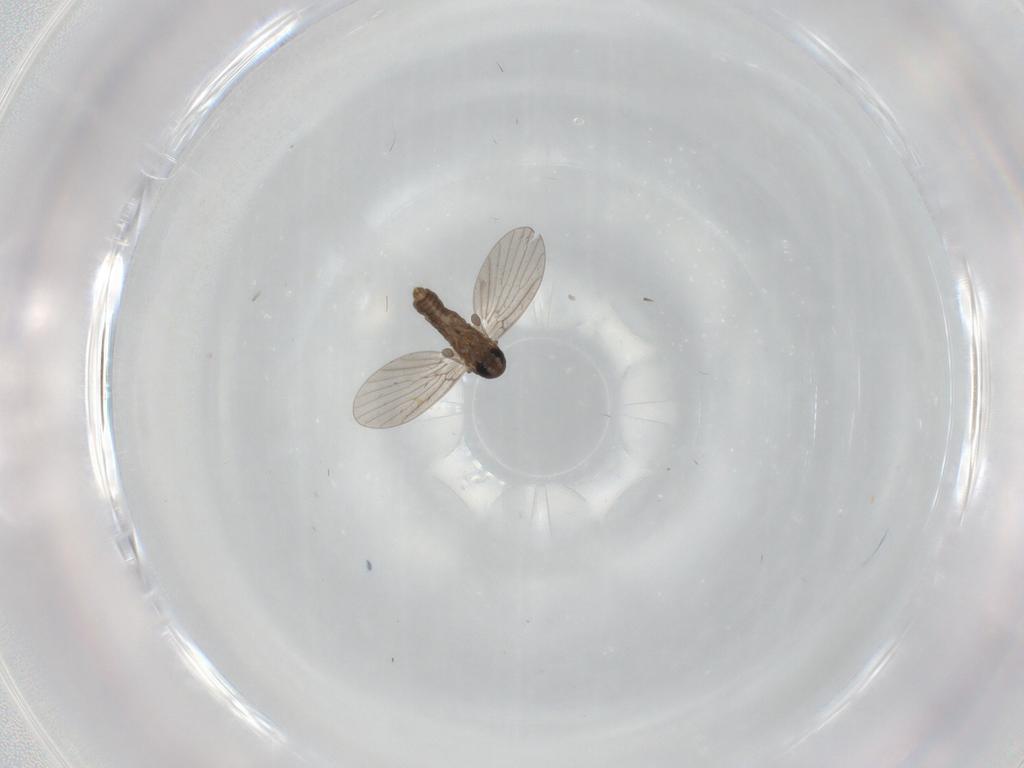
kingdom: Animalia
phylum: Arthropoda
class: Insecta
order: Diptera
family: Psychodidae
